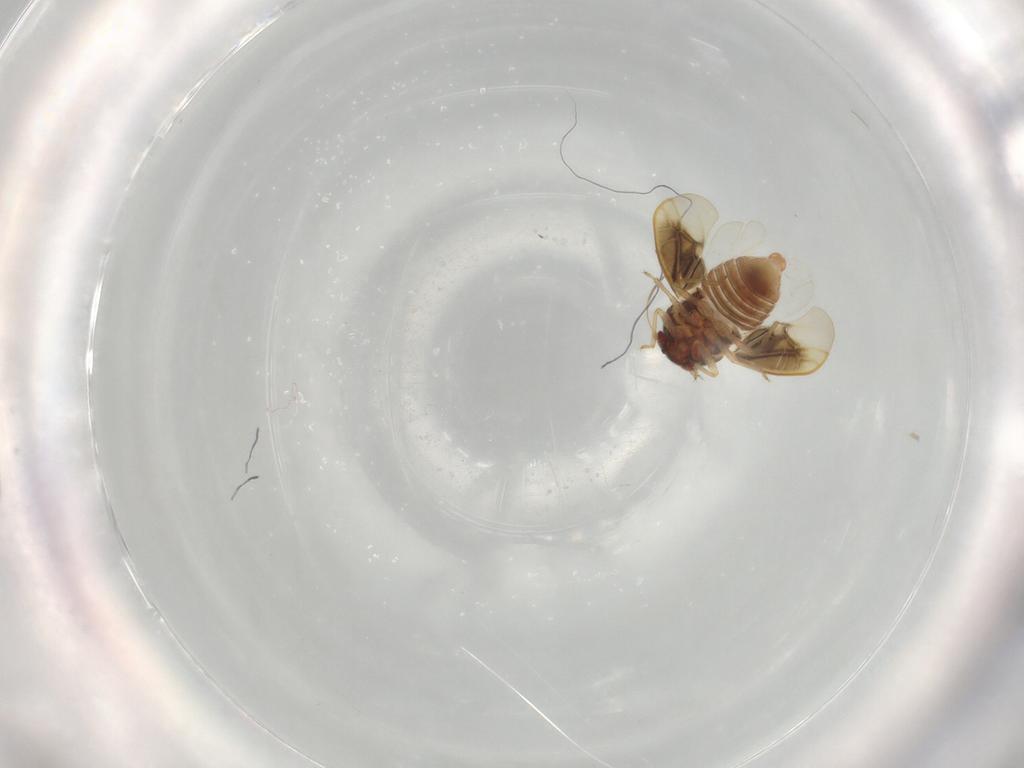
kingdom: Animalia
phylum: Arthropoda
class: Insecta
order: Hemiptera
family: Schizopteridae
